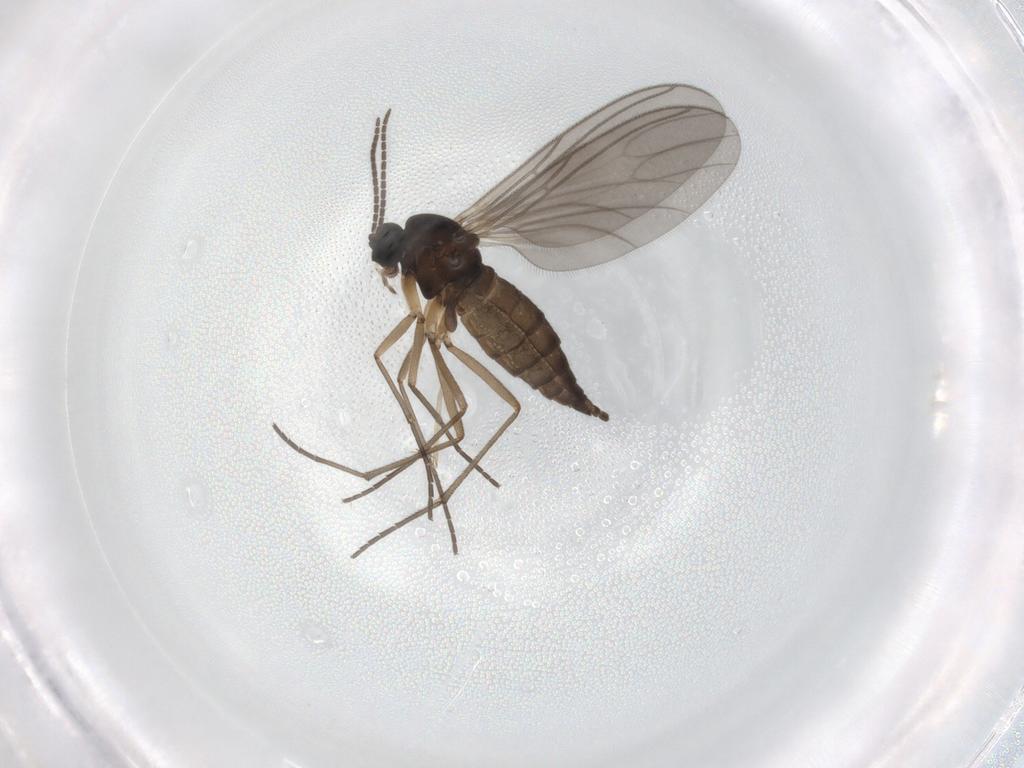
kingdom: Animalia
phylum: Arthropoda
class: Insecta
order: Diptera
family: Sciaridae
